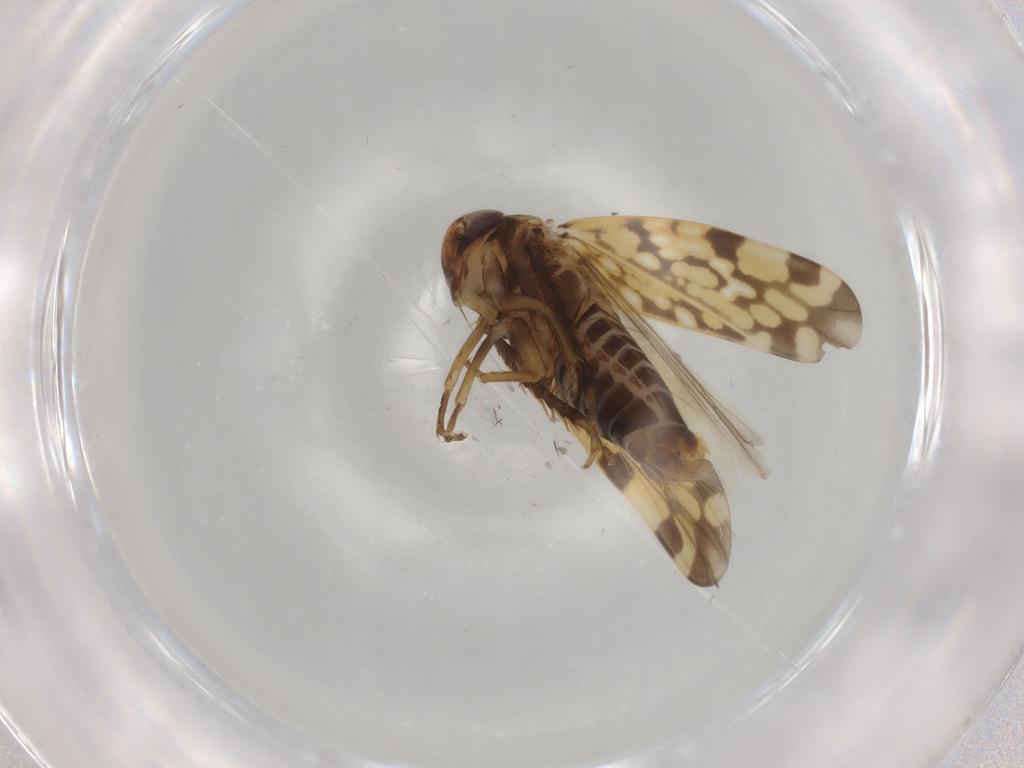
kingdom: Animalia
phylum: Arthropoda
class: Insecta
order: Hemiptera
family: Cicadellidae
